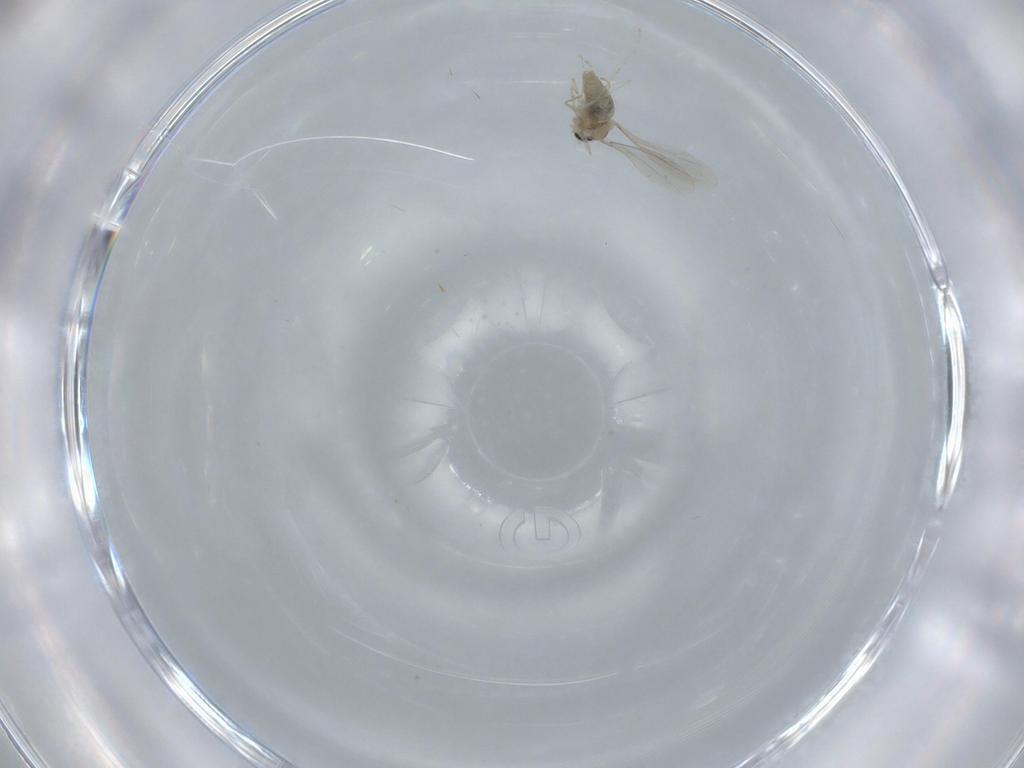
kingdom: Animalia
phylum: Arthropoda
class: Insecta
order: Diptera
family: Cecidomyiidae
